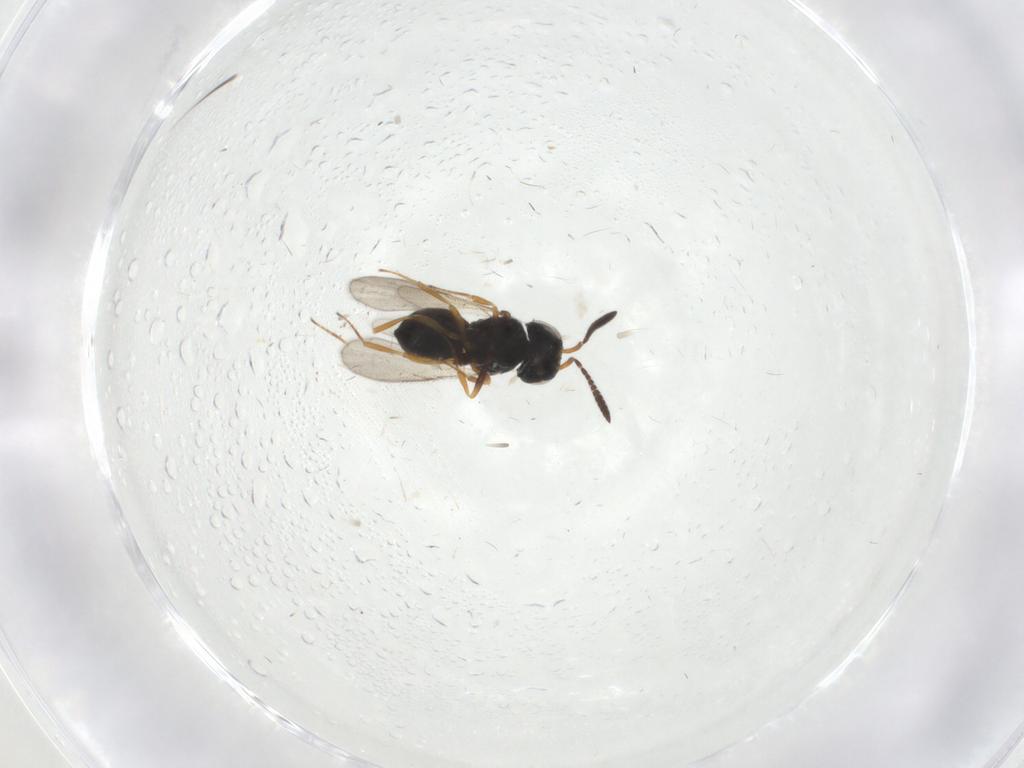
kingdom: Animalia
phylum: Arthropoda
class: Insecta
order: Hymenoptera
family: Scelionidae
